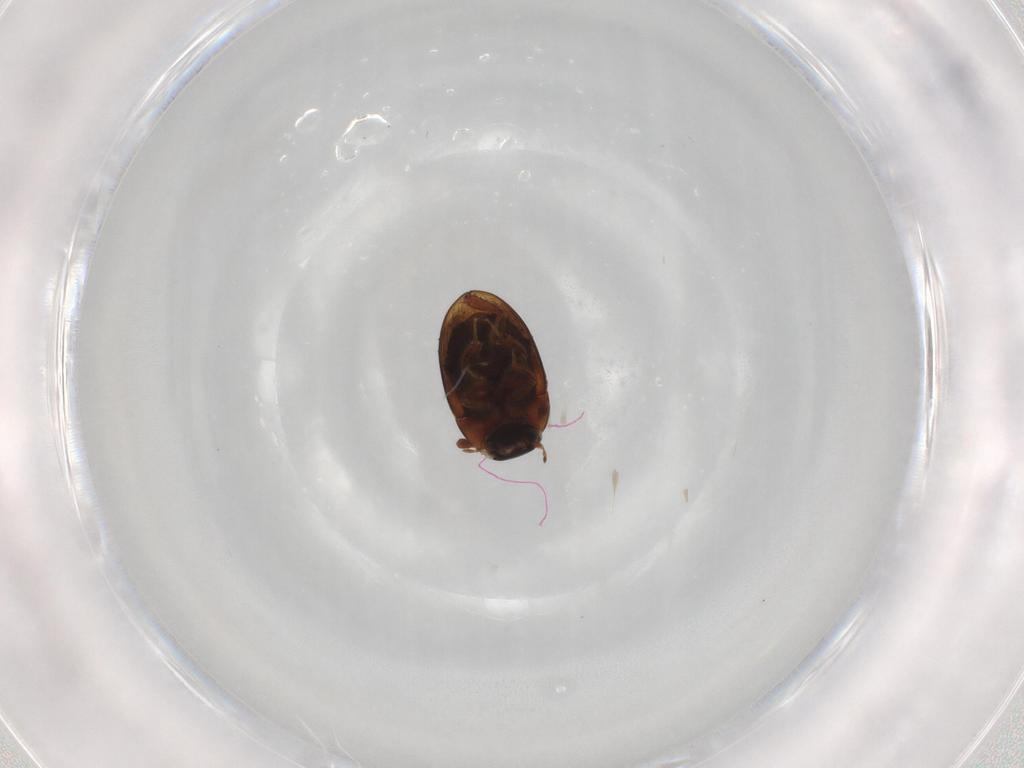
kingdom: Animalia
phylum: Arthropoda
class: Insecta
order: Coleoptera
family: Hydrophilidae
